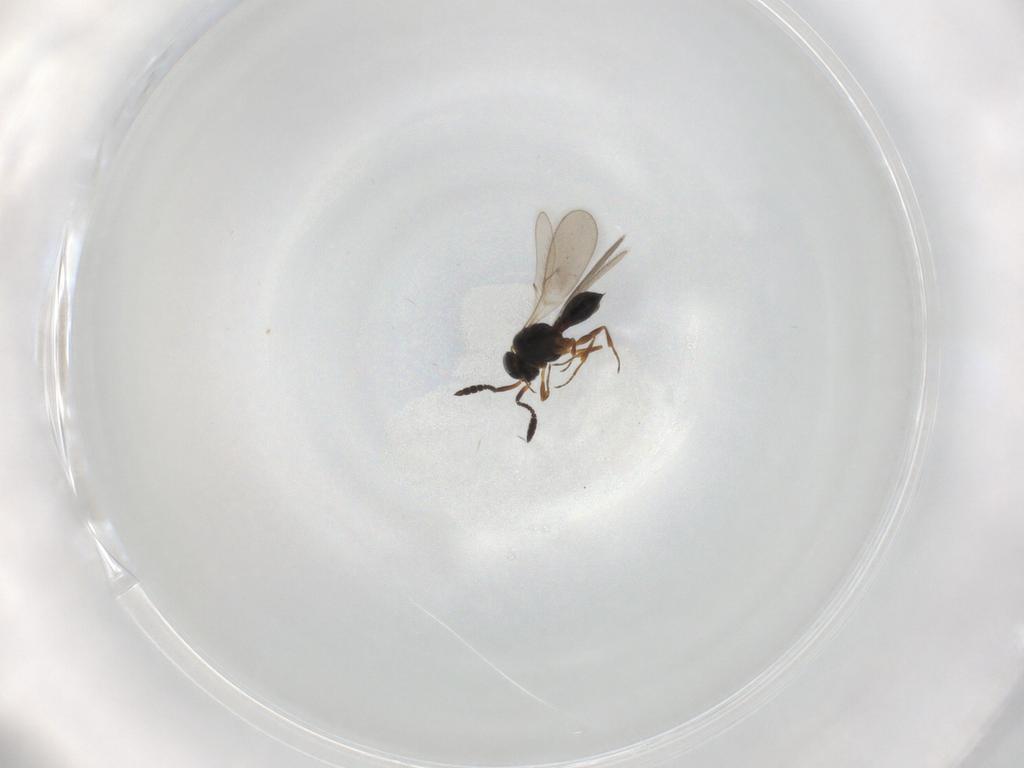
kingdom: Animalia
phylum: Arthropoda
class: Insecta
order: Hymenoptera
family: Scelionidae
